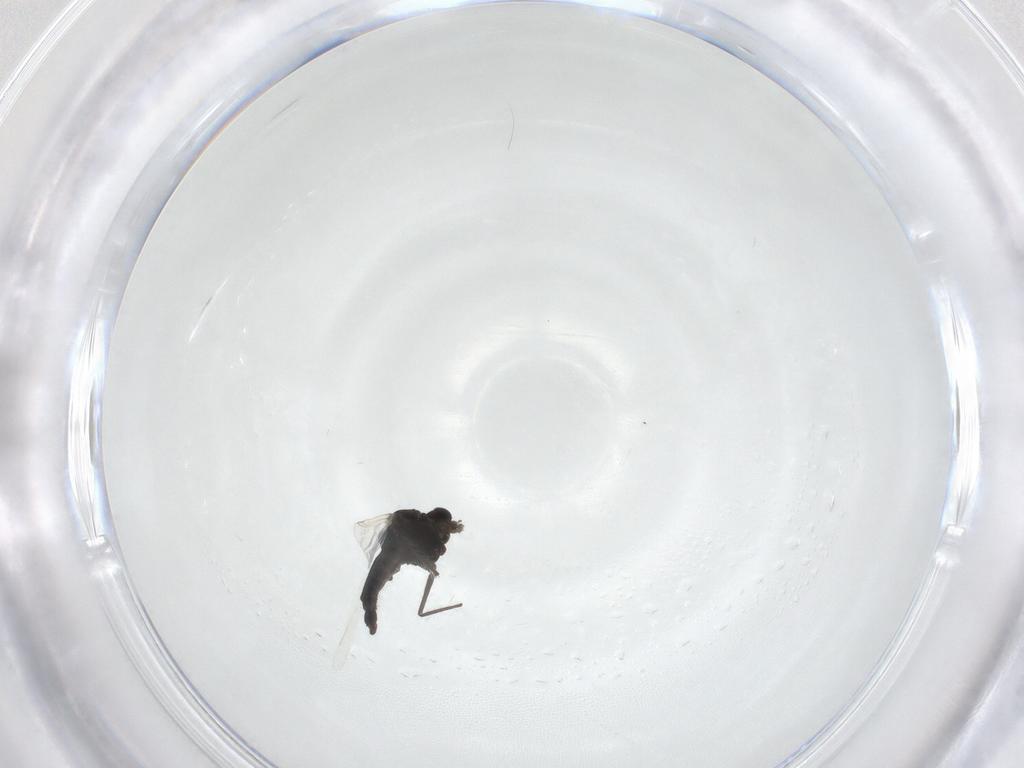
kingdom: Animalia
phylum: Arthropoda
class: Insecta
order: Diptera
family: Chironomidae
